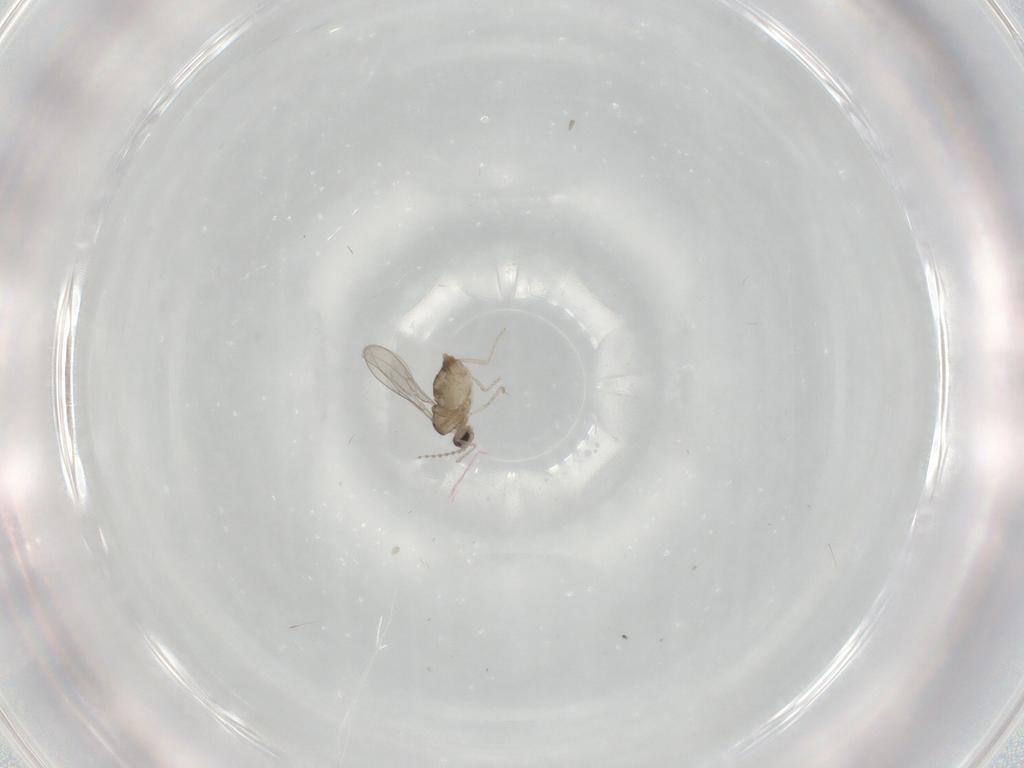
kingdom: Animalia
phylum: Arthropoda
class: Insecta
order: Diptera
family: Cecidomyiidae
